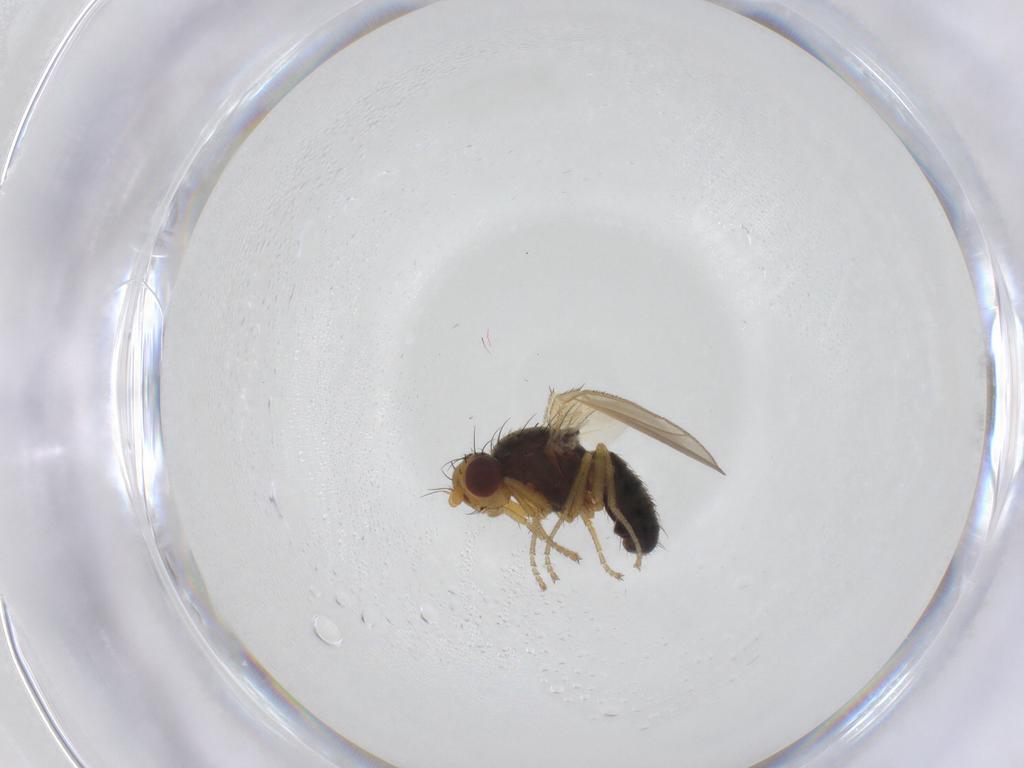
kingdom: Animalia
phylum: Arthropoda
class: Insecta
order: Diptera
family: Heleomyzidae
